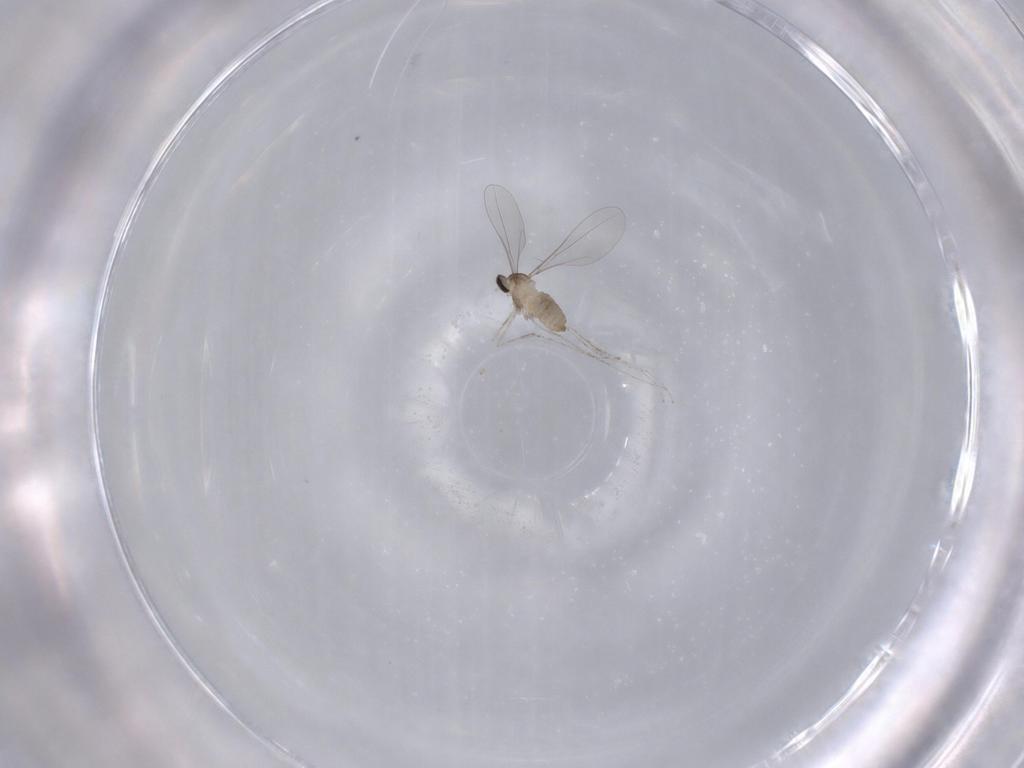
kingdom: Animalia
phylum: Arthropoda
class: Insecta
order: Diptera
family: Cecidomyiidae
